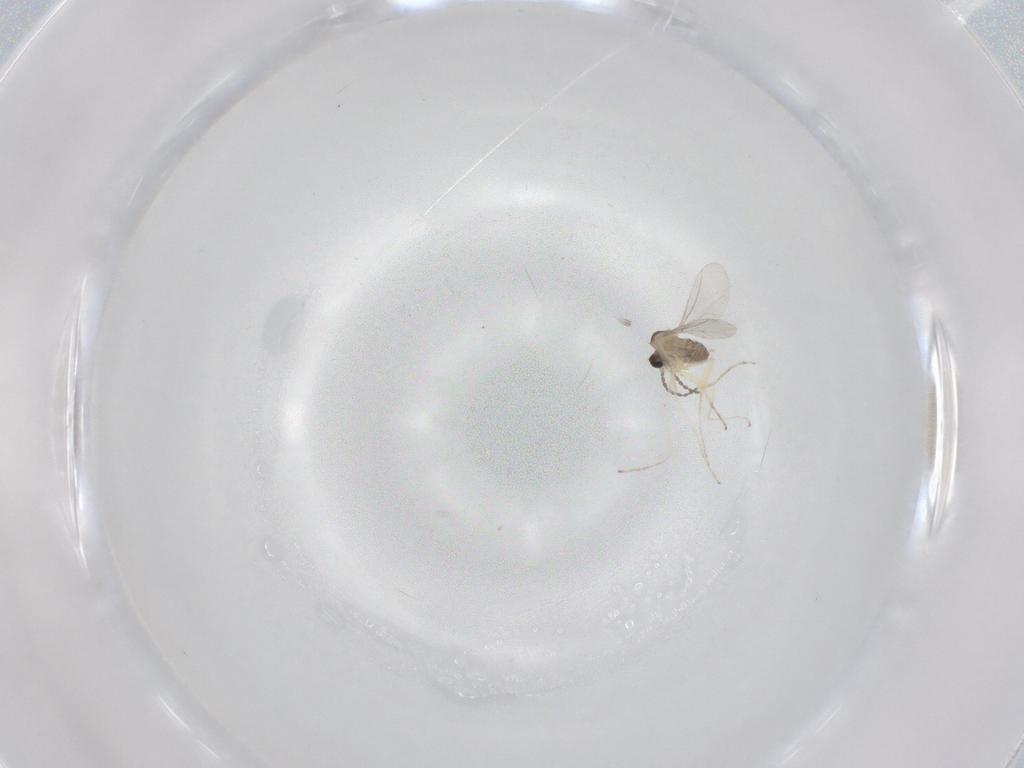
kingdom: Animalia
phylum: Arthropoda
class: Insecta
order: Diptera
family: Cecidomyiidae
